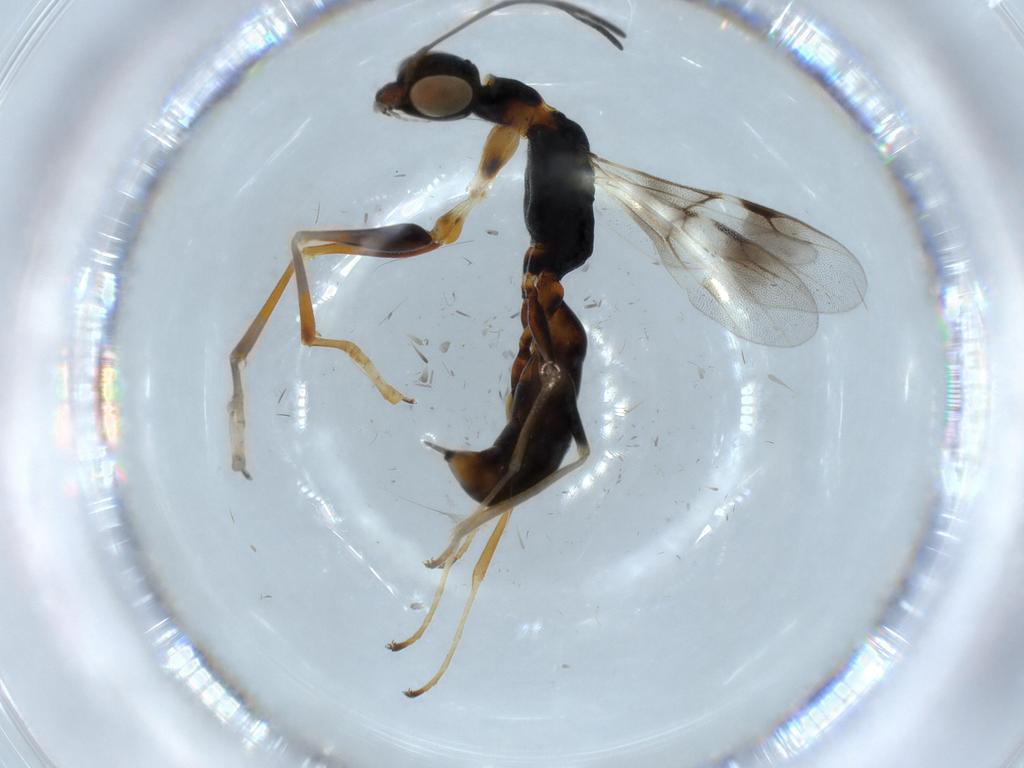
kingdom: Animalia
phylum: Arthropoda
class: Insecta
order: Hymenoptera
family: Dryinidae
